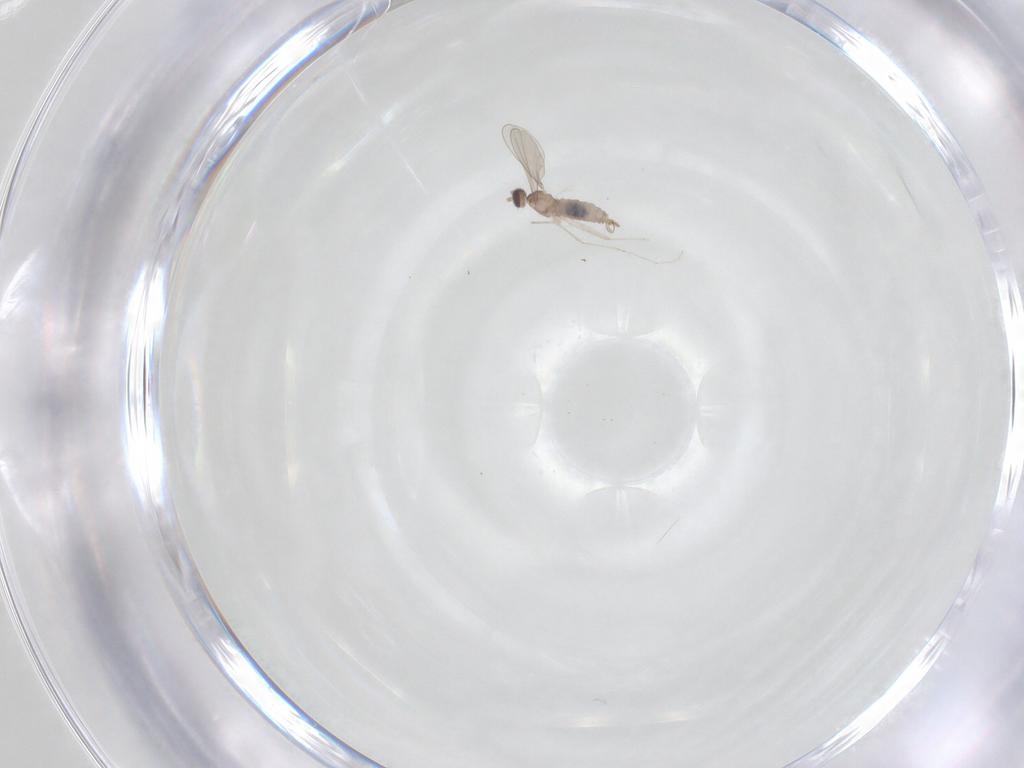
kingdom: Animalia
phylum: Arthropoda
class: Insecta
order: Diptera
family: Cecidomyiidae
